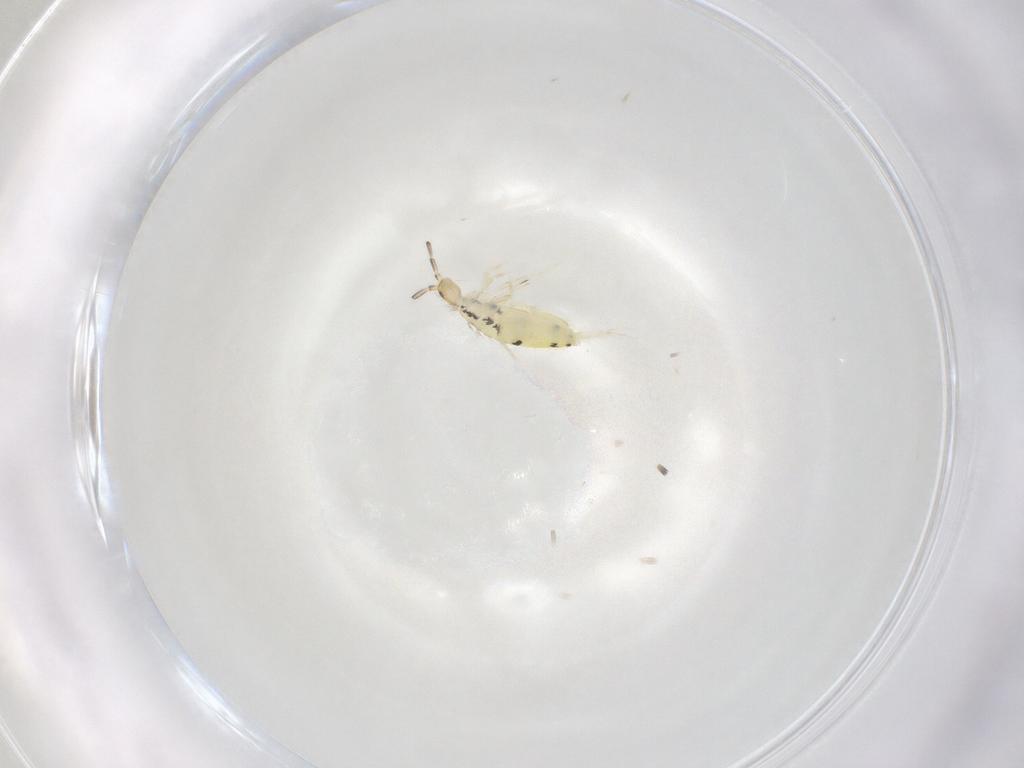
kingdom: Animalia
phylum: Arthropoda
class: Collembola
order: Entomobryomorpha
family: Entomobryidae
